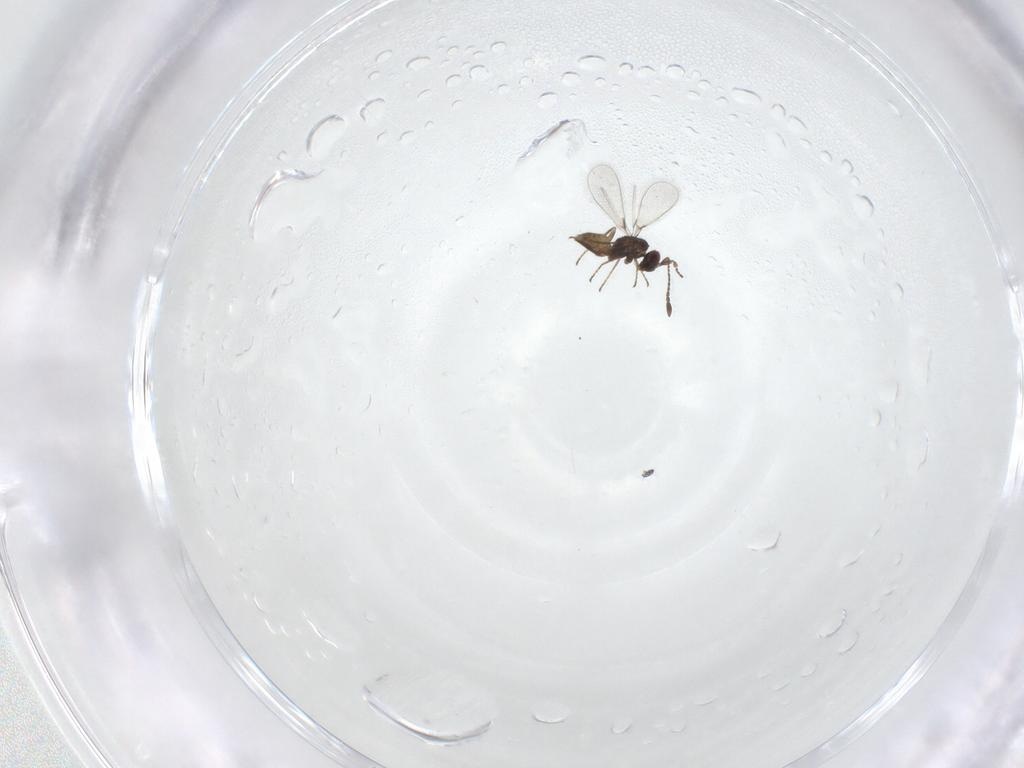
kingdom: Animalia
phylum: Arthropoda
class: Insecta
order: Hymenoptera
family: Mymaridae
